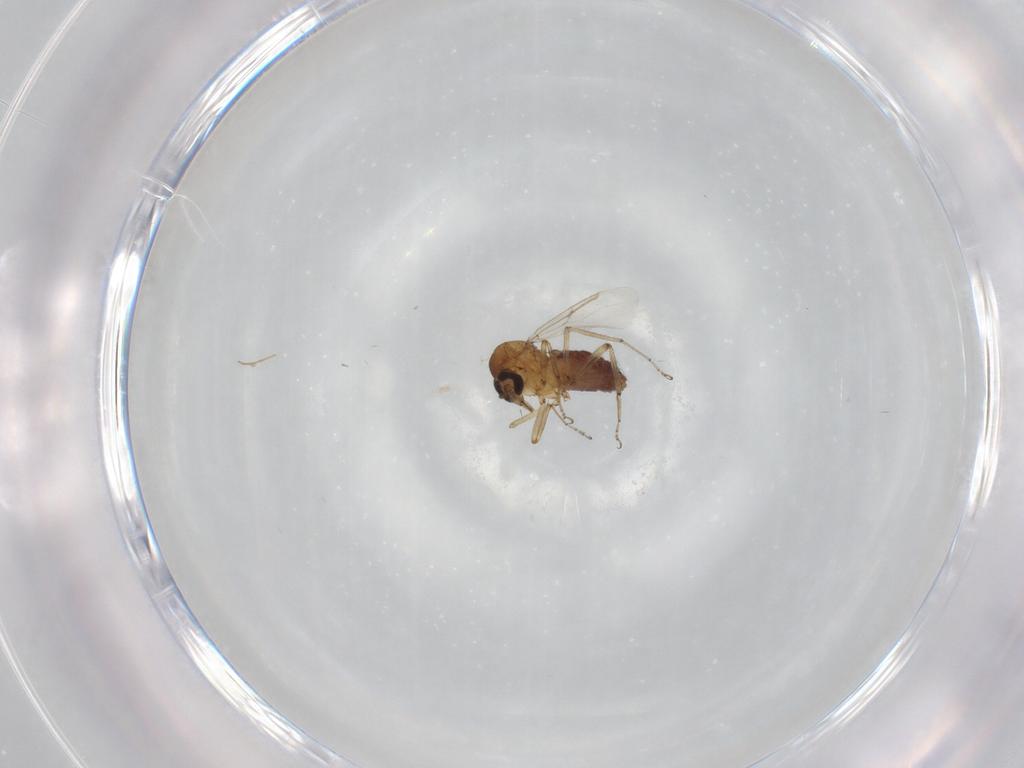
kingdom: Animalia
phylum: Arthropoda
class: Insecta
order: Diptera
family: Ceratopogonidae
